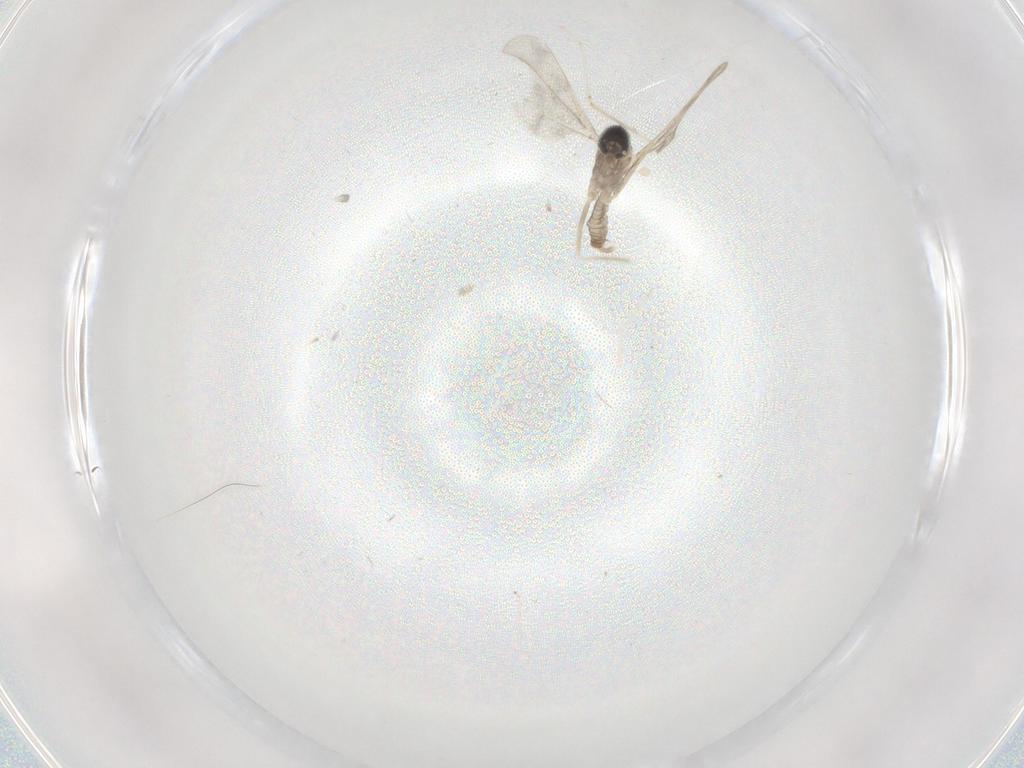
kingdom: Animalia
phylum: Arthropoda
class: Insecta
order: Diptera
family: Cecidomyiidae
